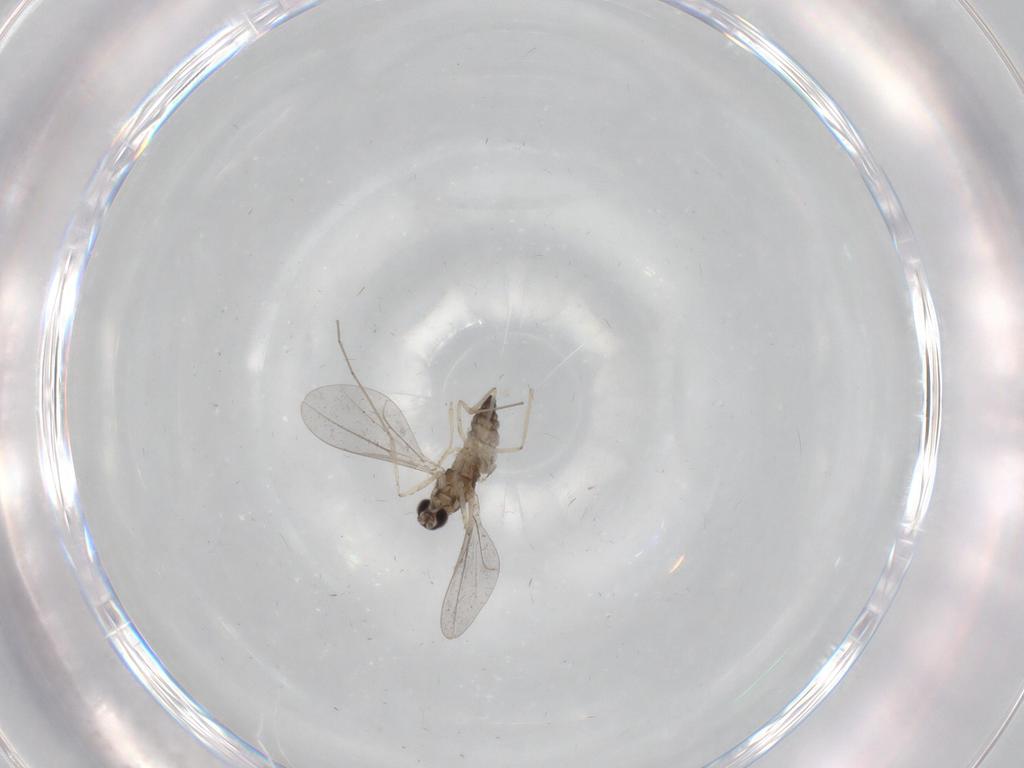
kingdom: Animalia
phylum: Arthropoda
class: Insecta
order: Diptera
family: Cecidomyiidae
